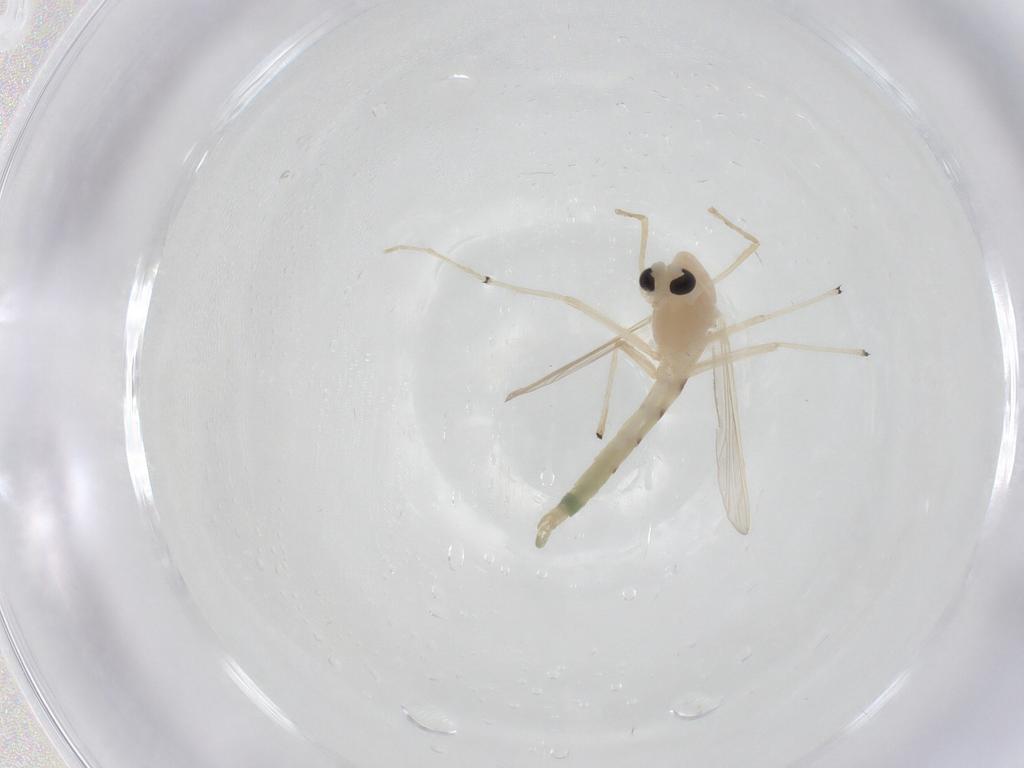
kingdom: Animalia
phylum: Arthropoda
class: Insecta
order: Diptera
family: Chironomidae
